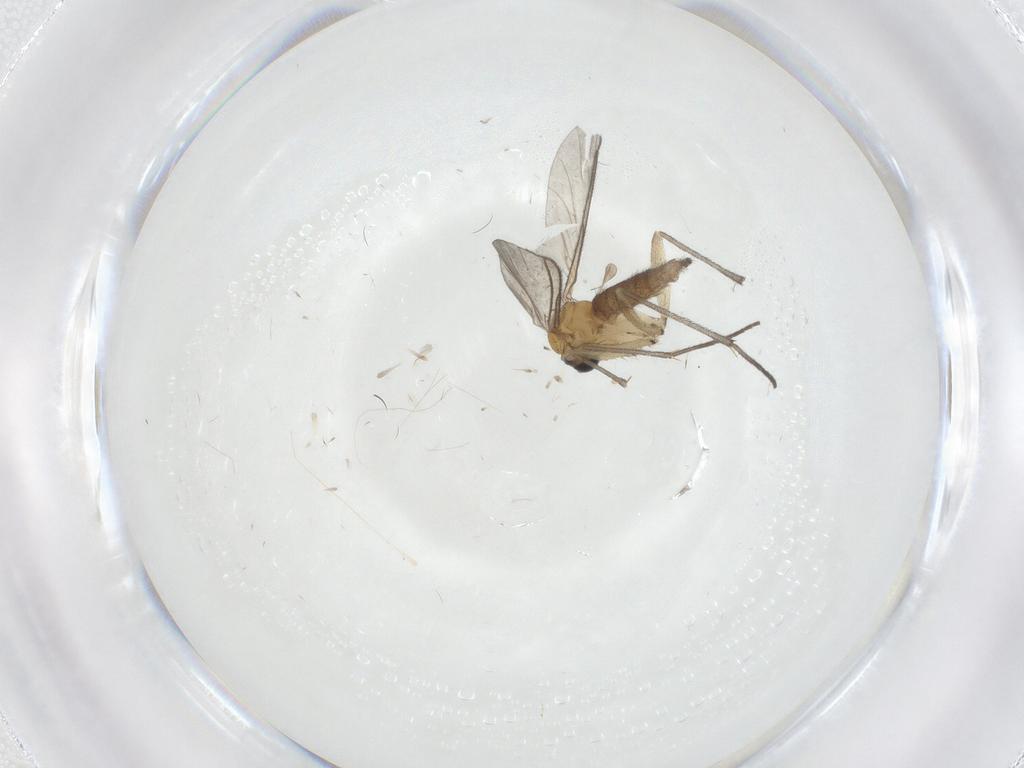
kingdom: Animalia
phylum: Arthropoda
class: Insecta
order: Diptera
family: Sciaridae
